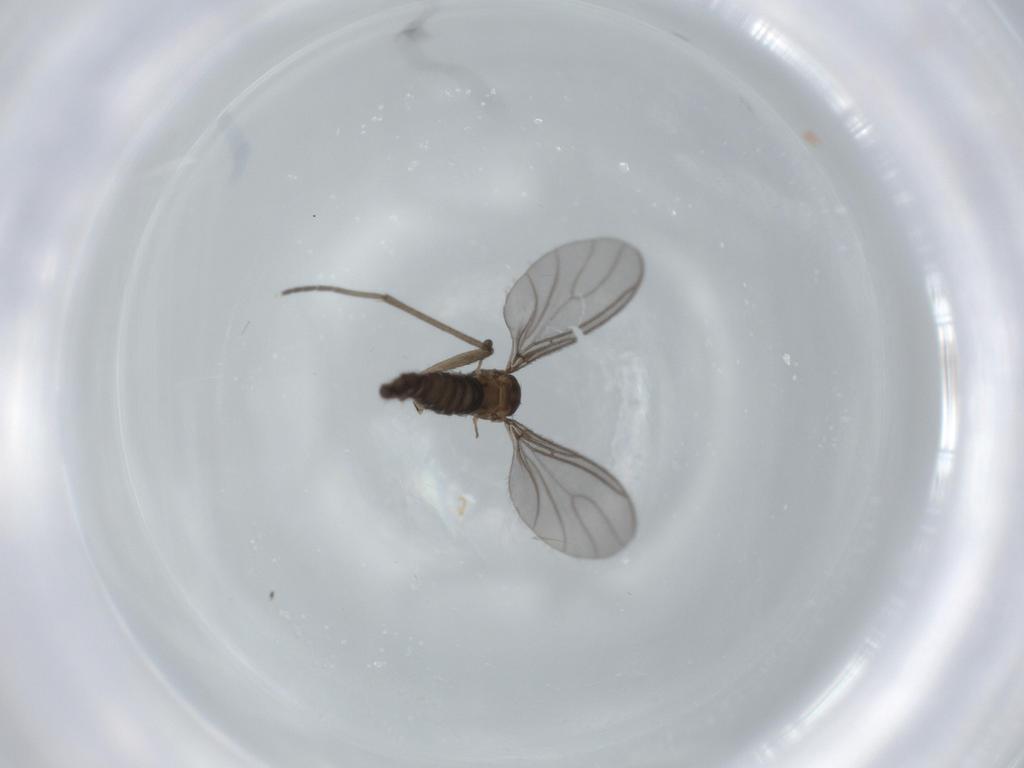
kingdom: Animalia
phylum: Arthropoda
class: Insecta
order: Diptera
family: Sciaridae
